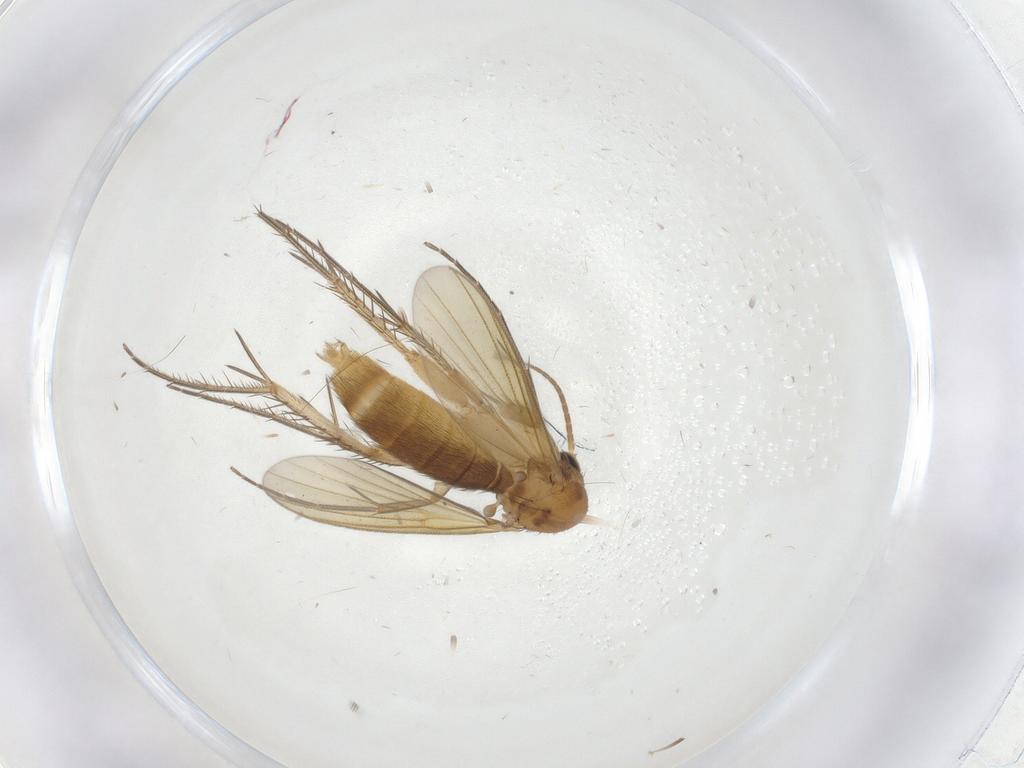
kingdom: Animalia
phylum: Arthropoda
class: Insecta
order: Diptera
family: Mycetophilidae
